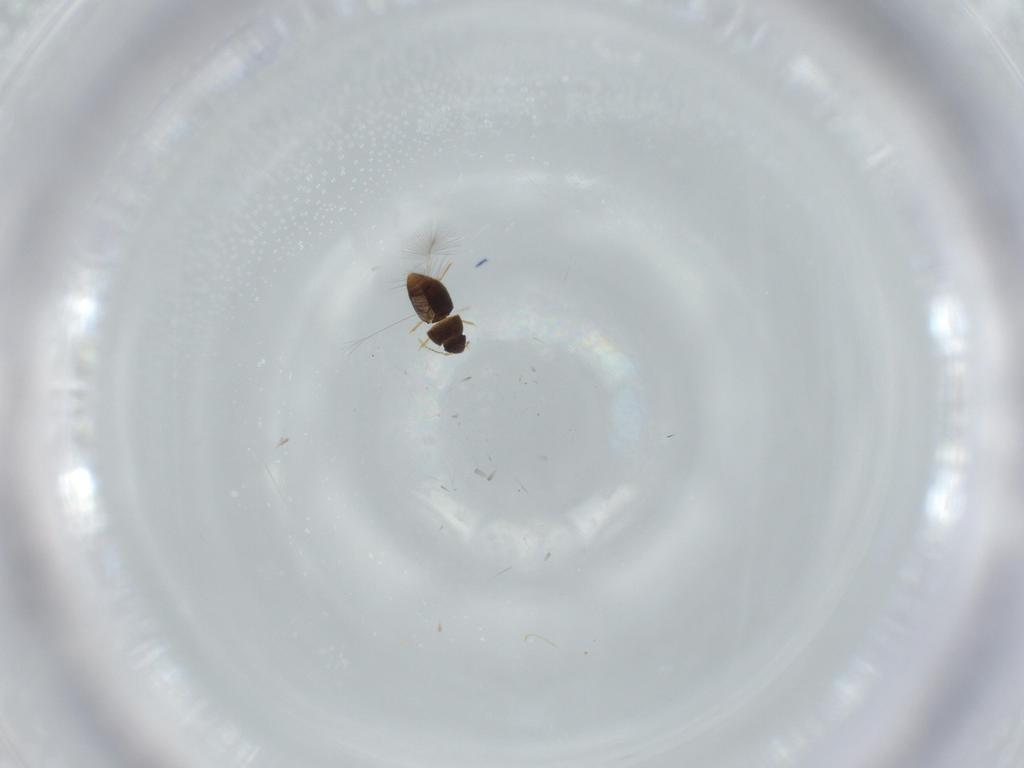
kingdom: Animalia
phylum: Arthropoda
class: Insecta
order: Coleoptera
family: Ptiliidae
